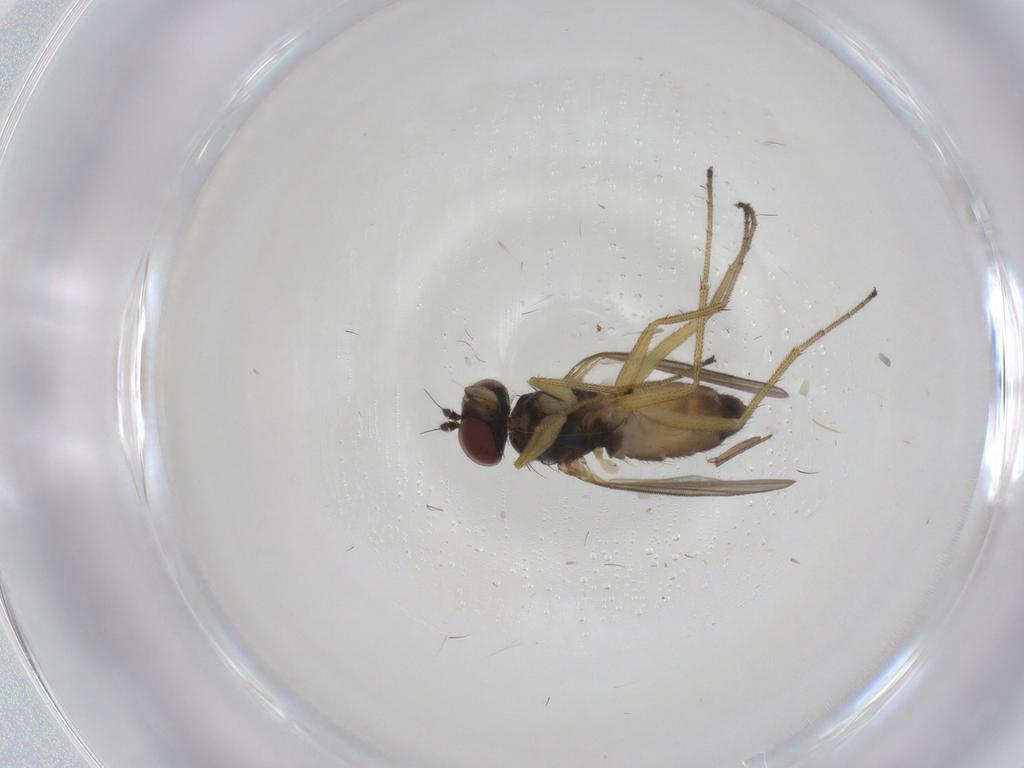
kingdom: Animalia
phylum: Arthropoda
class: Insecta
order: Diptera
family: Dolichopodidae
